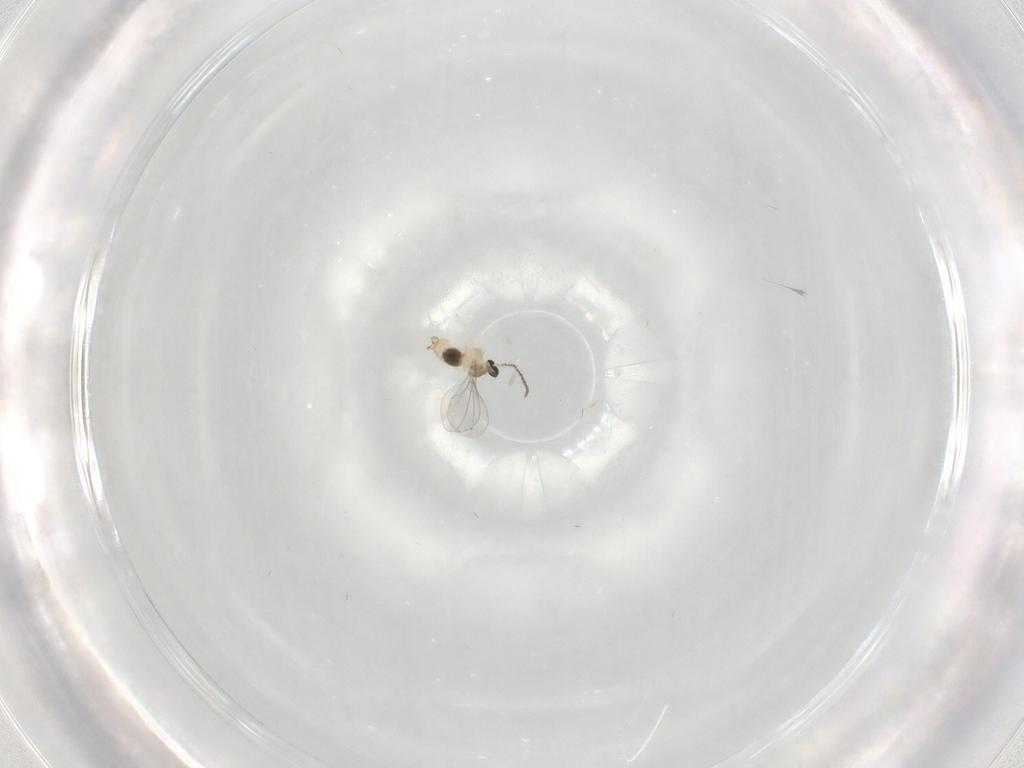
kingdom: Animalia
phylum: Arthropoda
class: Insecta
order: Diptera
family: Cecidomyiidae
